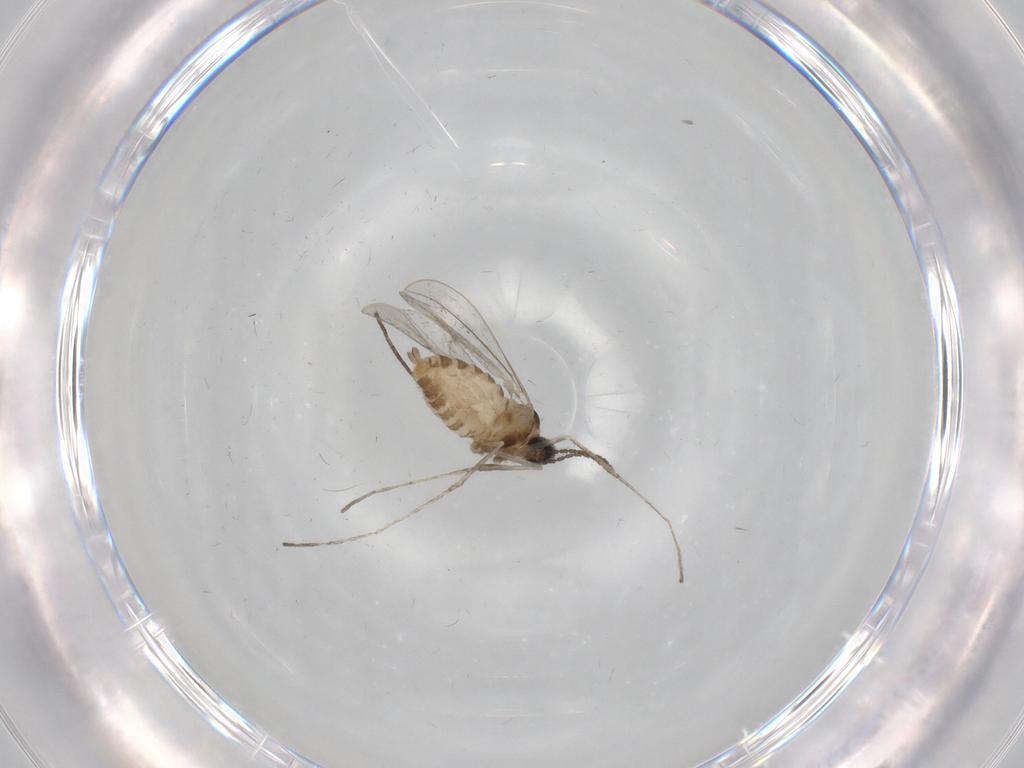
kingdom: Animalia
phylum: Arthropoda
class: Insecta
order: Diptera
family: Cecidomyiidae
